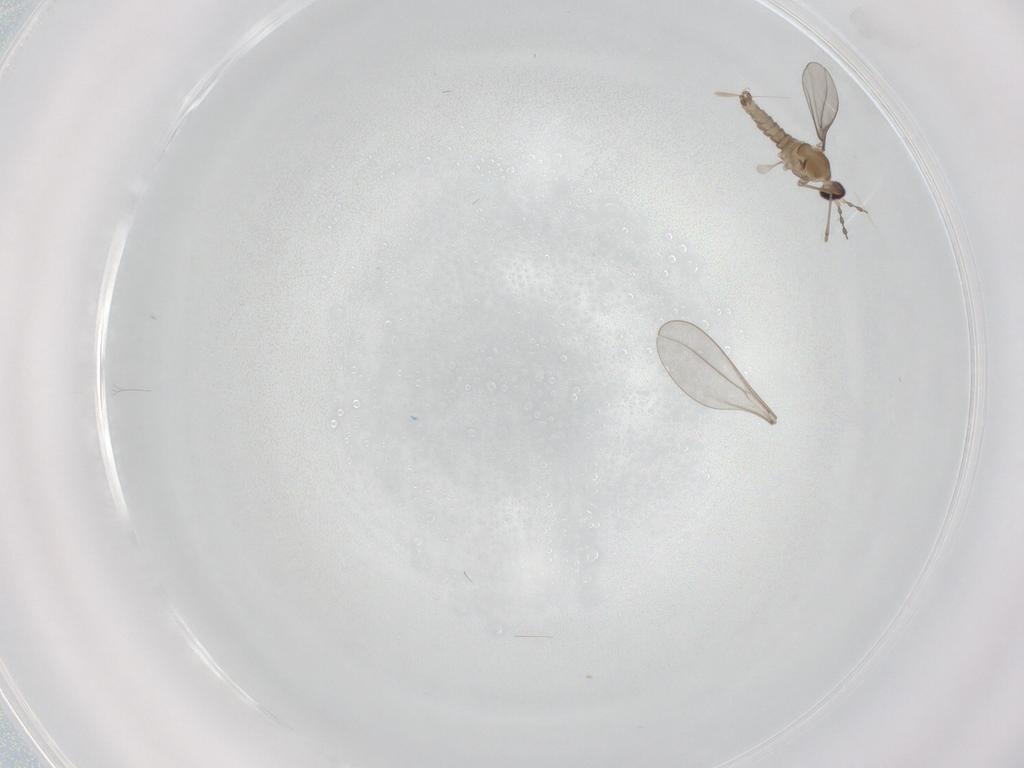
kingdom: Animalia
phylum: Arthropoda
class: Insecta
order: Diptera
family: Cecidomyiidae
